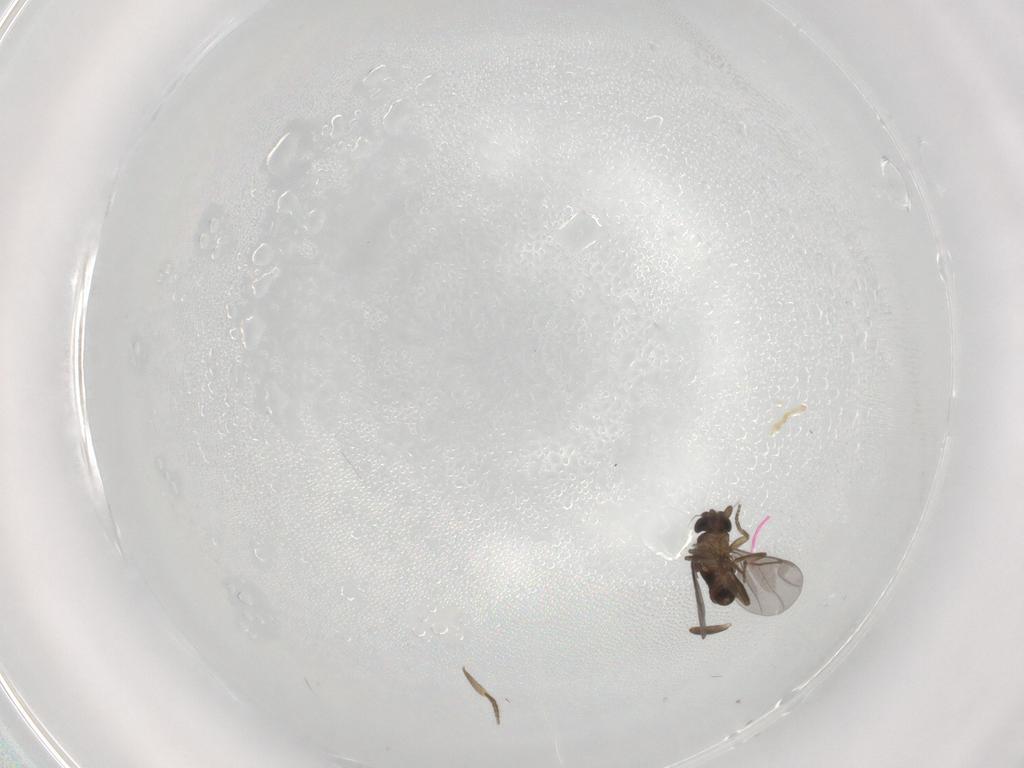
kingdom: Animalia
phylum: Arthropoda
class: Insecta
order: Diptera
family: Cecidomyiidae
